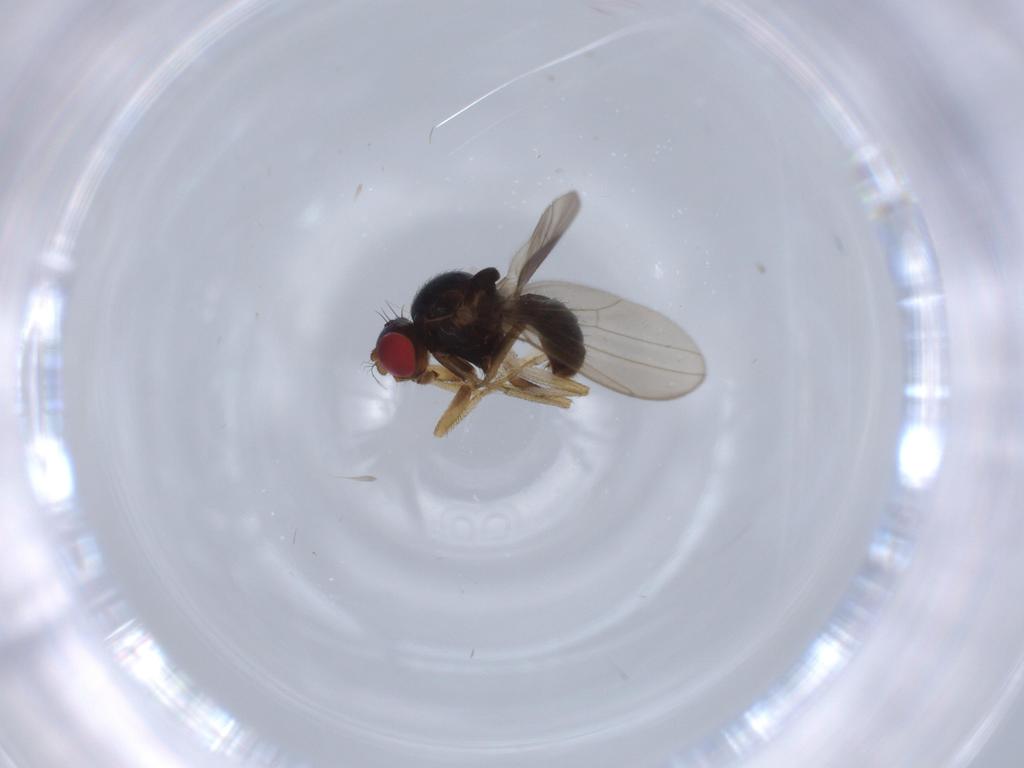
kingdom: Animalia
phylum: Arthropoda
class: Insecta
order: Diptera
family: Drosophilidae
